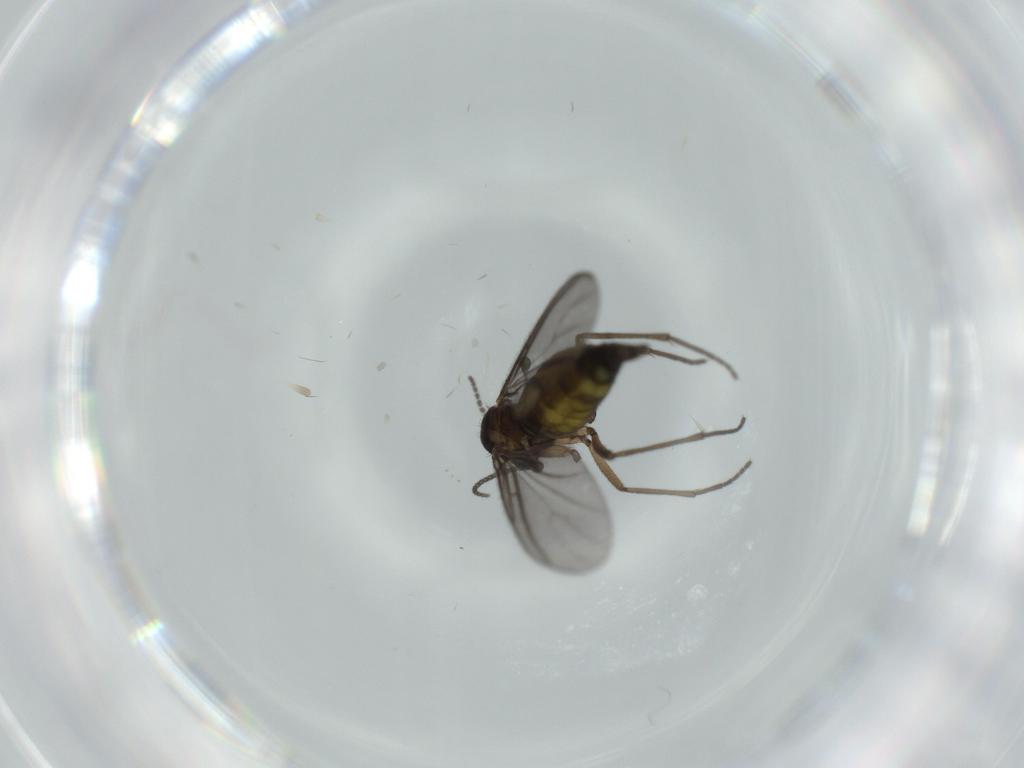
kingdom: Animalia
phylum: Arthropoda
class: Insecta
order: Diptera
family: Sciaridae
